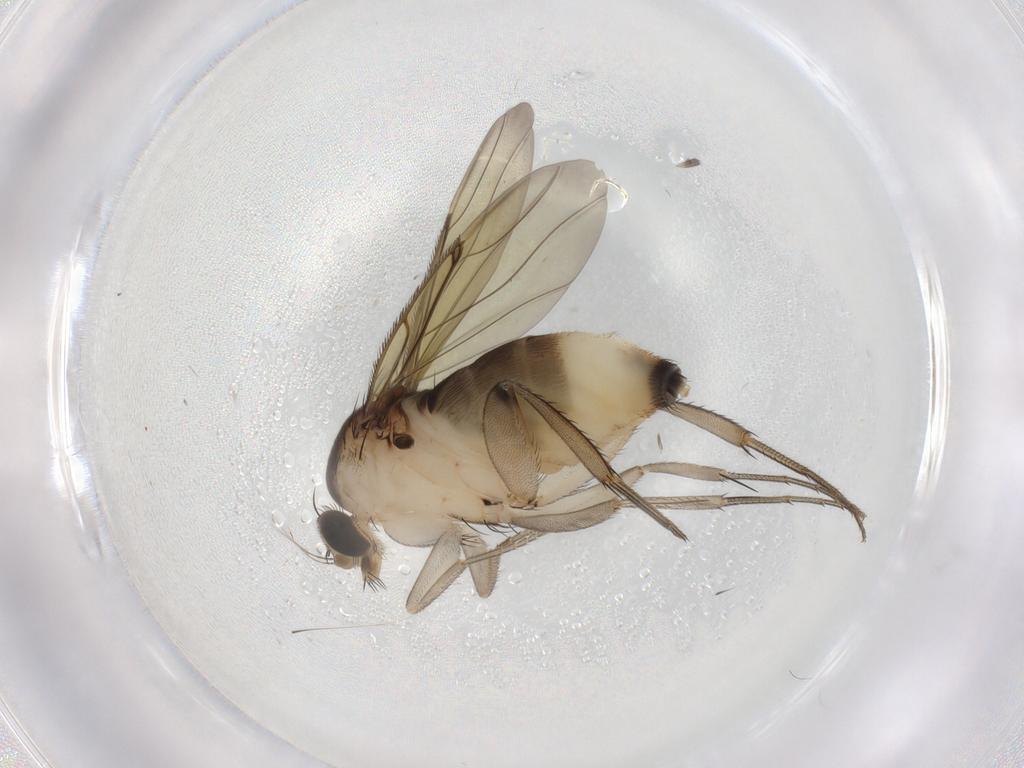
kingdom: Animalia
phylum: Arthropoda
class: Insecta
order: Diptera
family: Phoridae
